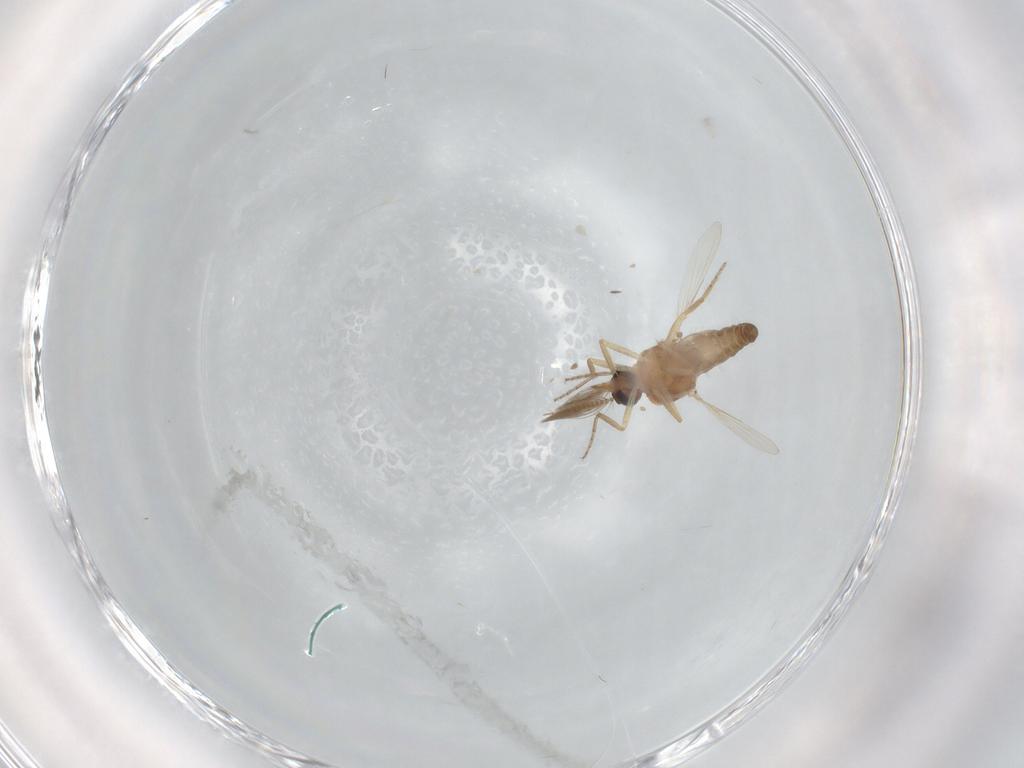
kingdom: Animalia
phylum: Arthropoda
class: Insecta
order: Diptera
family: Ceratopogonidae
